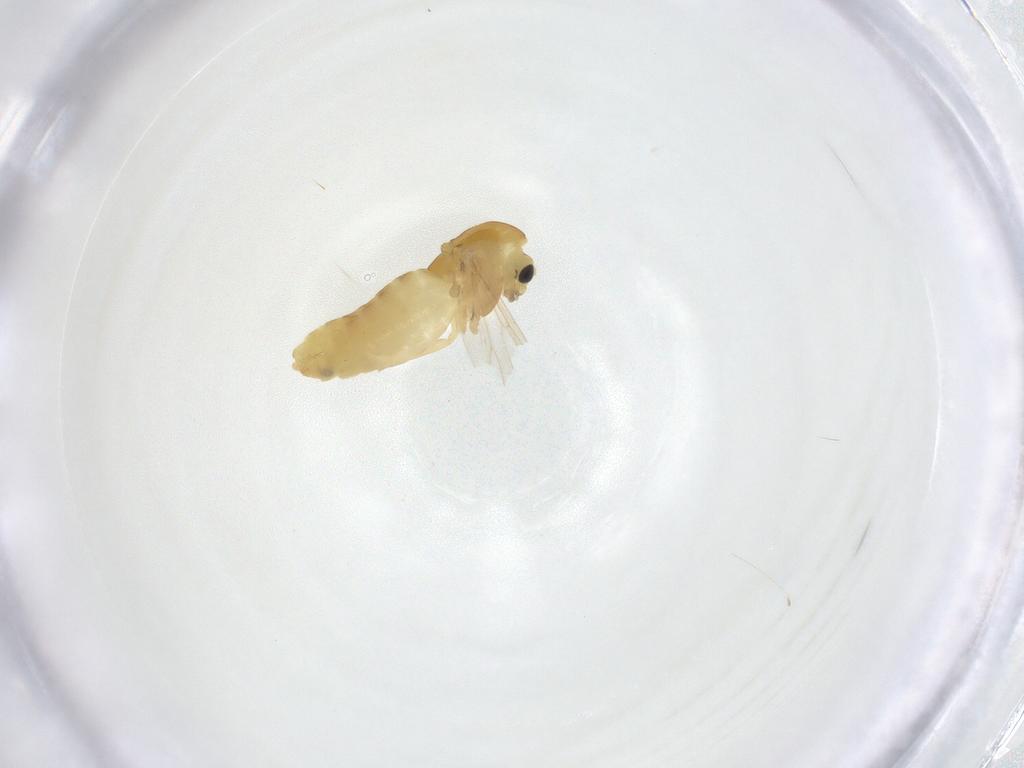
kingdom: Animalia
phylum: Arthropoda
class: Insecta
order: Diptera
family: Chironomidae
